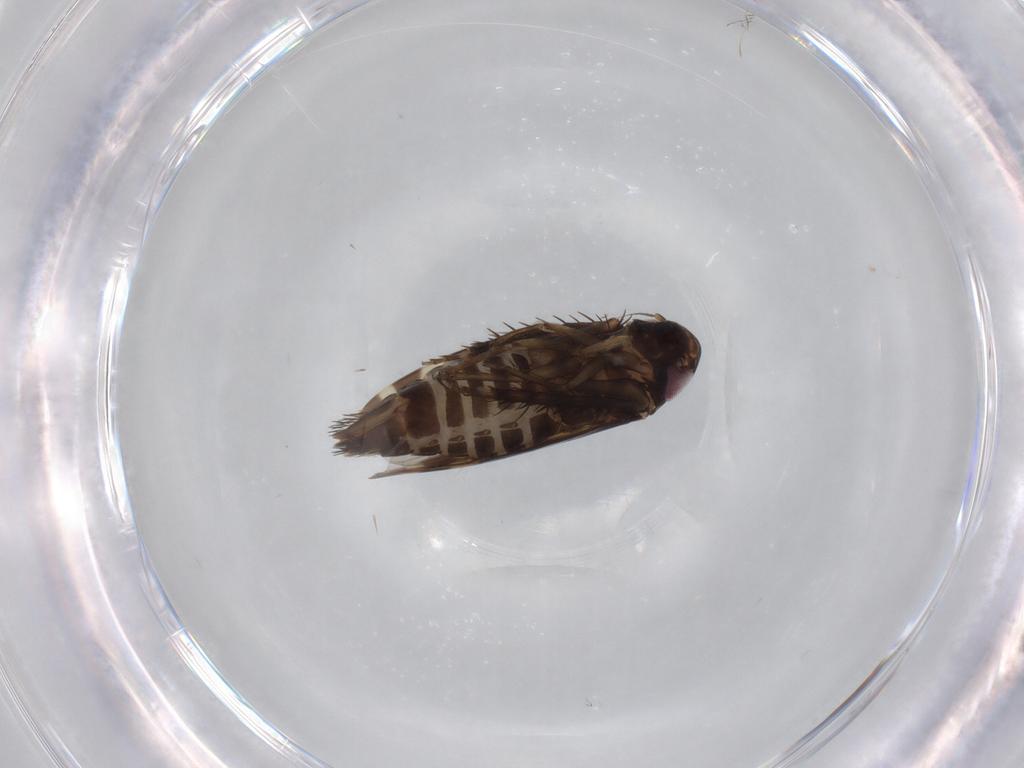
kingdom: Animalia
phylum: Arthropoda
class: Insecta
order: Hemiptera
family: Cicadellidae
